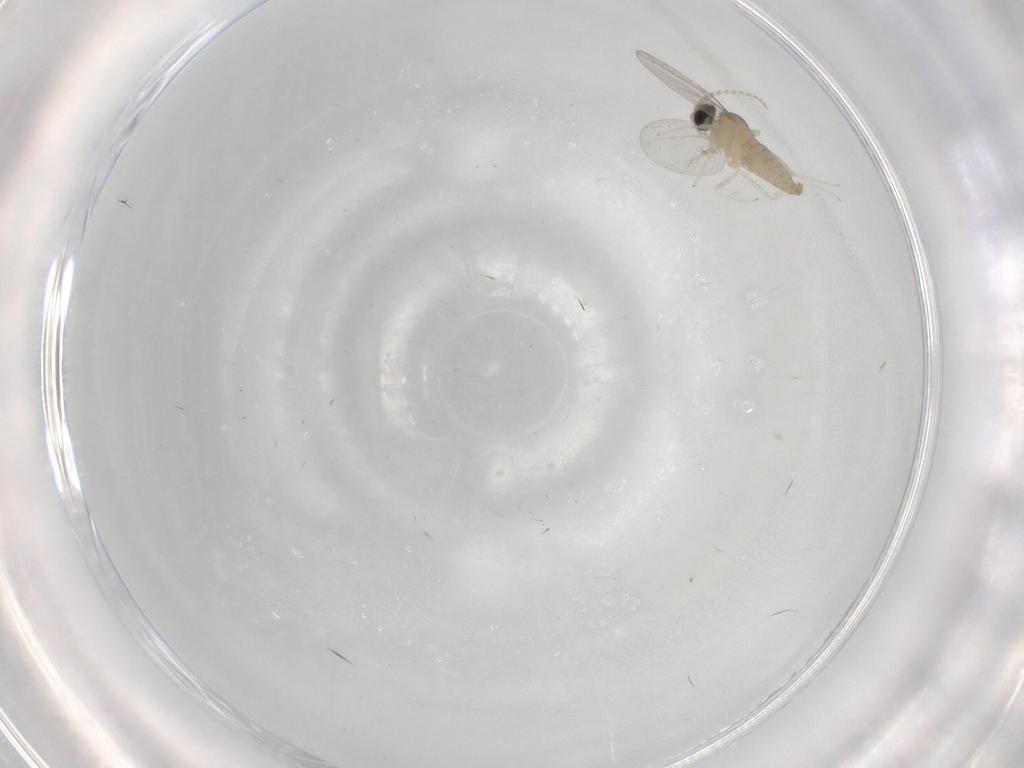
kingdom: Animalia
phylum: Arthropoda
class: Insecta
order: Diptera
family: Cecidomyiidae
